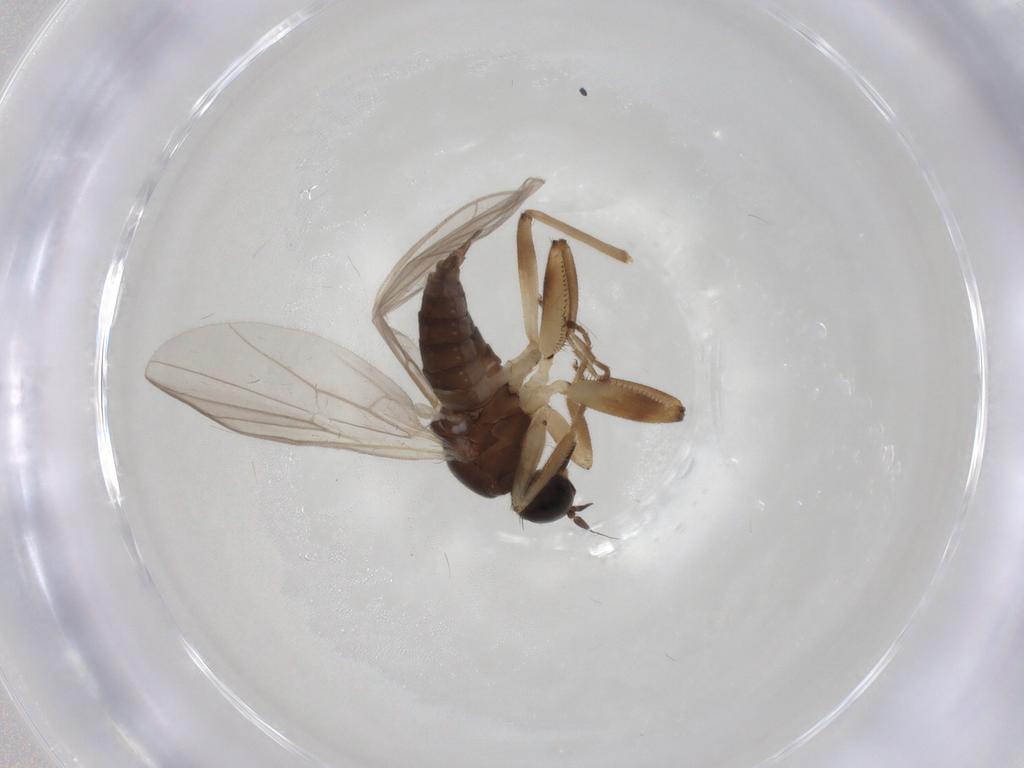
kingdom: Animalia
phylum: Arthropoda
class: Insecta
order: Diptera
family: Hybotidae
